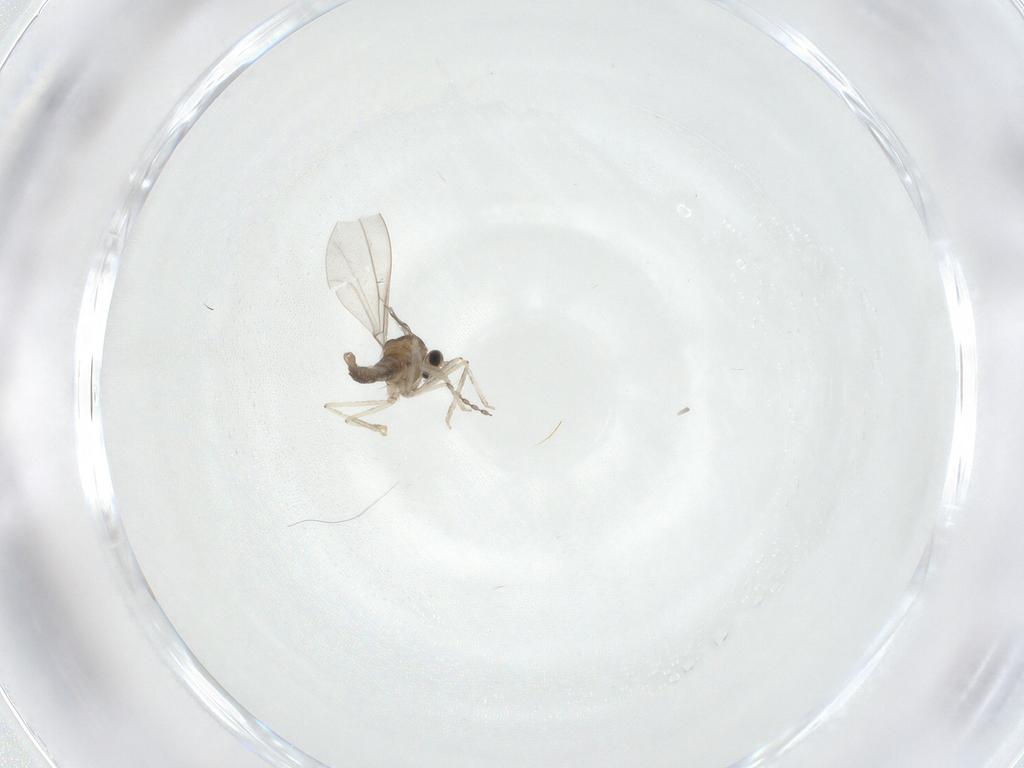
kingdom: Animalia
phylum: Arthropoda
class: Insecta
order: Diptera
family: Cecidomyiidae
